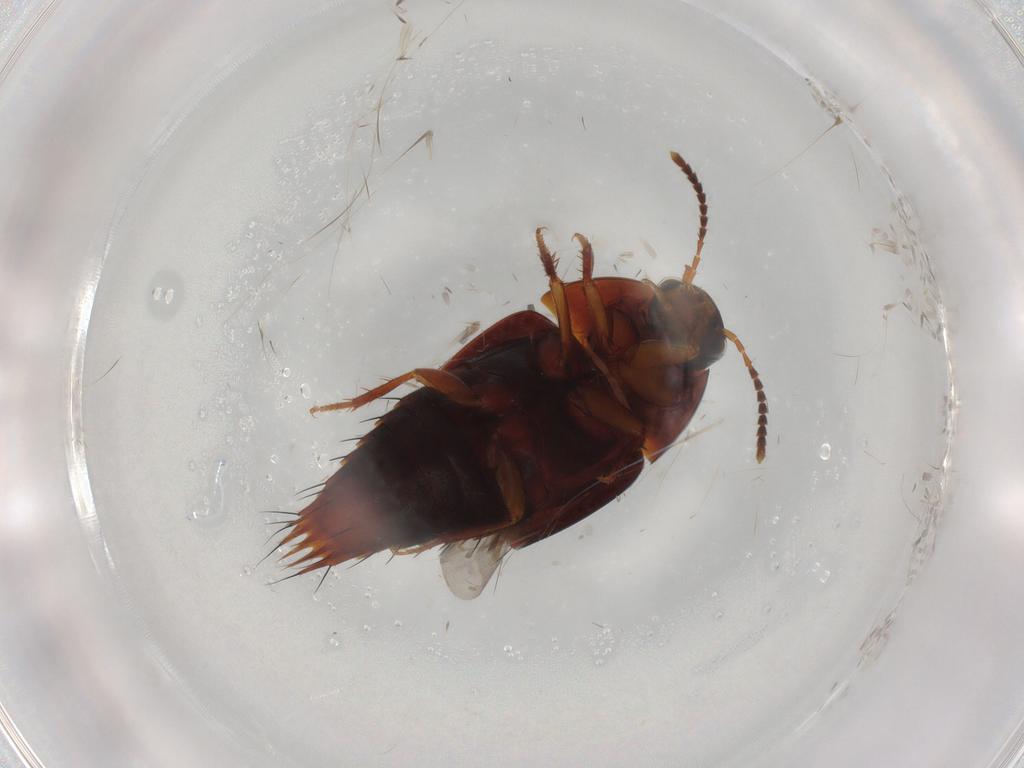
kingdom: Animalia
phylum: Arthropoda
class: Insecta
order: Coleoptera
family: Staphylinidae
